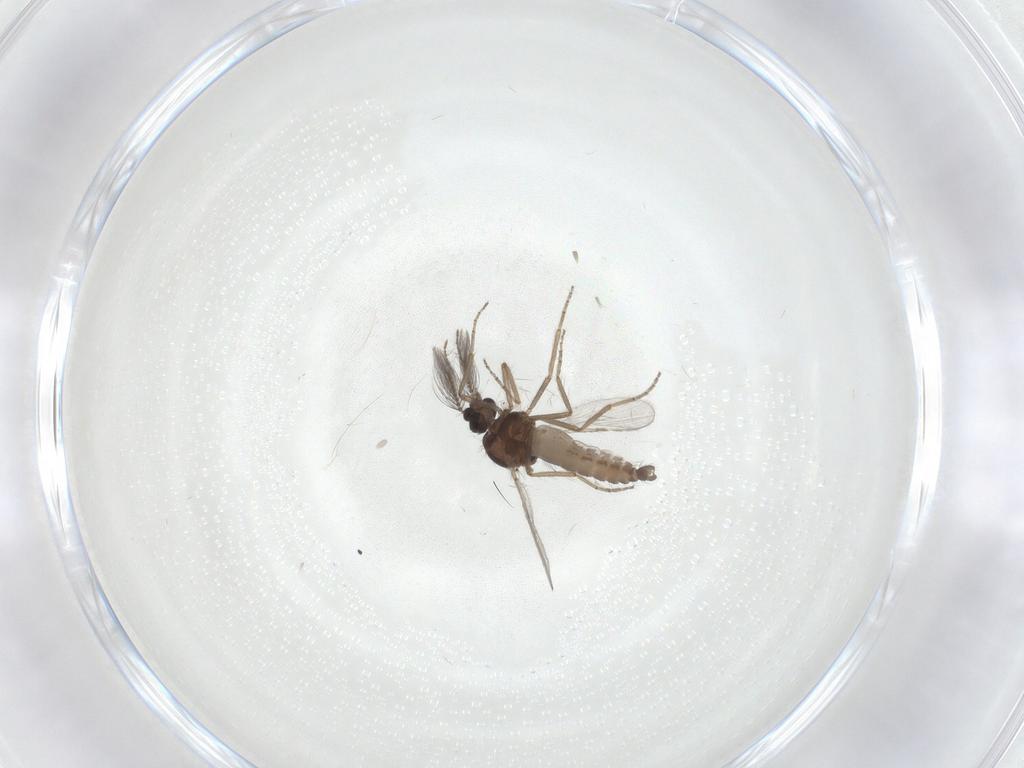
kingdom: Animalia
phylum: Arthropoda
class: Insecta
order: Diptera
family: Ceratopogonidae
